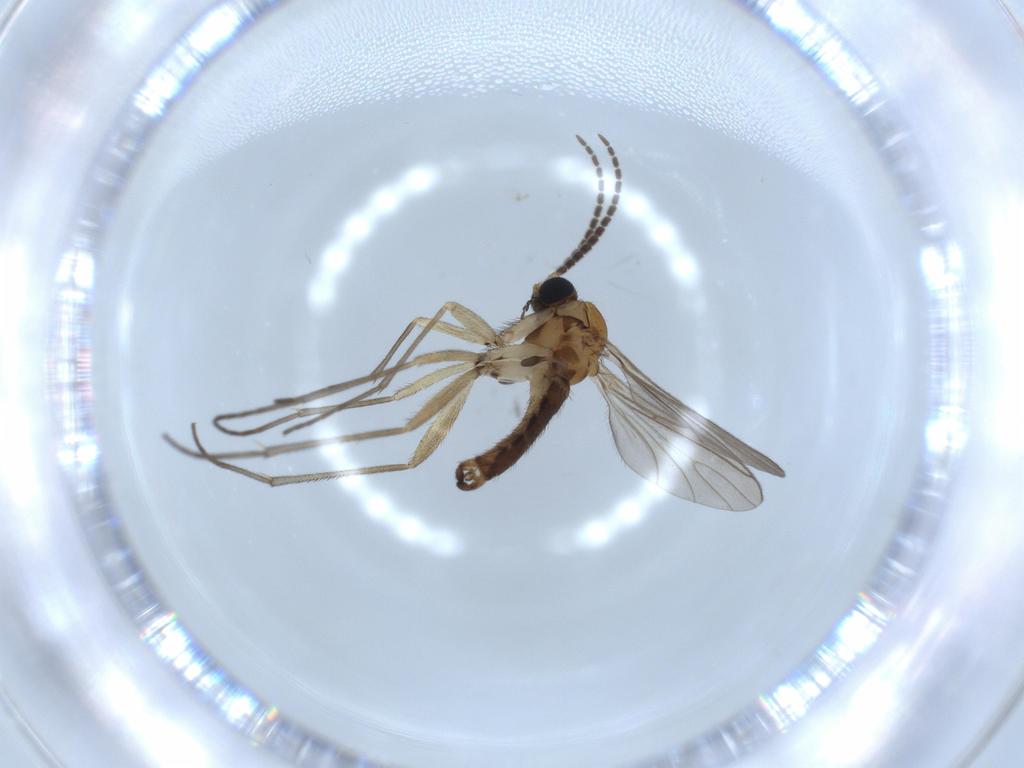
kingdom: Animalia
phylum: Arthropoda
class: Insecta
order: Diptera
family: Sciaridae
